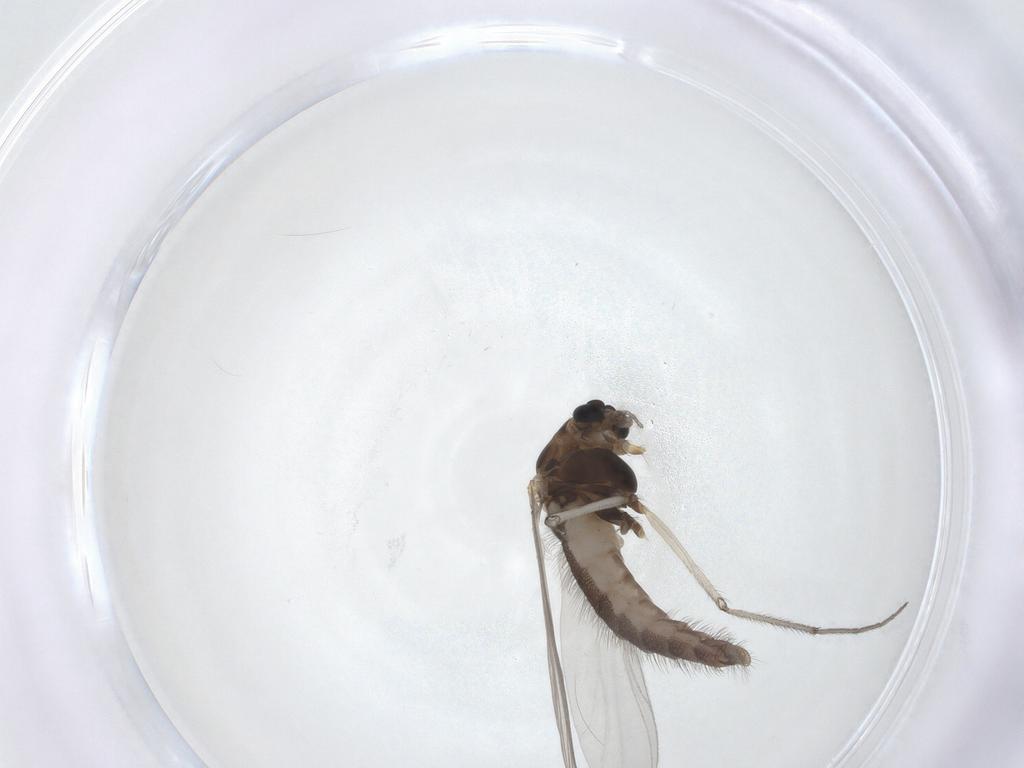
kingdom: Animalia
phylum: Arthropoda
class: Insecta
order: Diptera
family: Chironomidae
